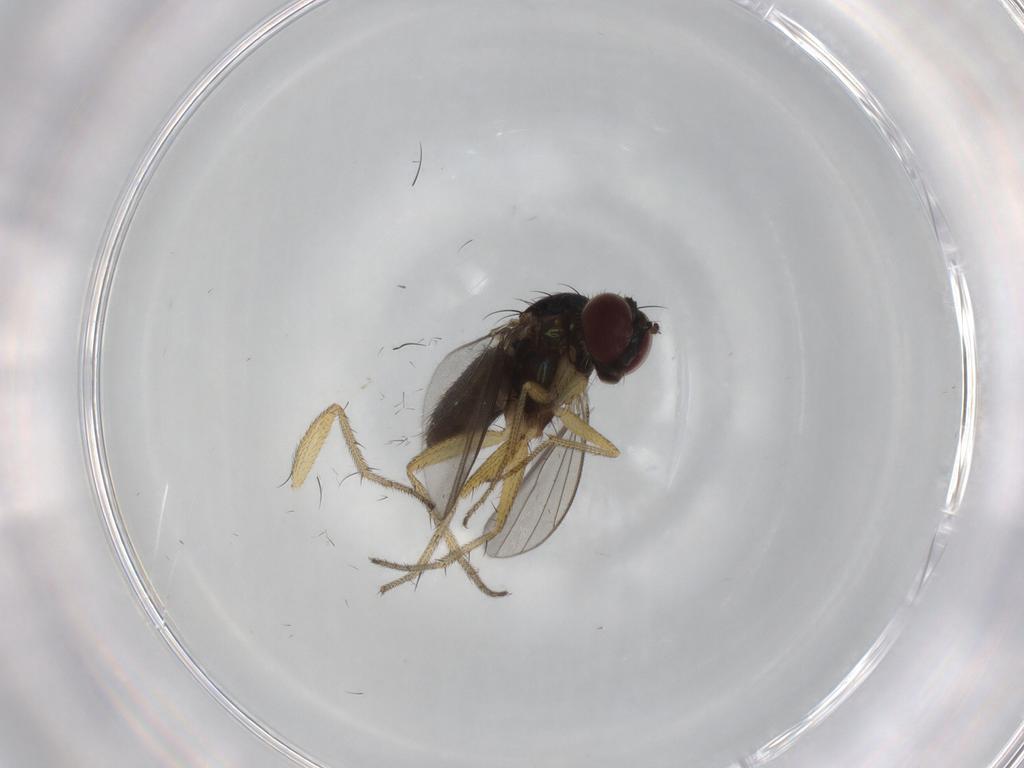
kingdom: Animalia
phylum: Arthropoda
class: Insecta
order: Diptera
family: Dolichopodidae
